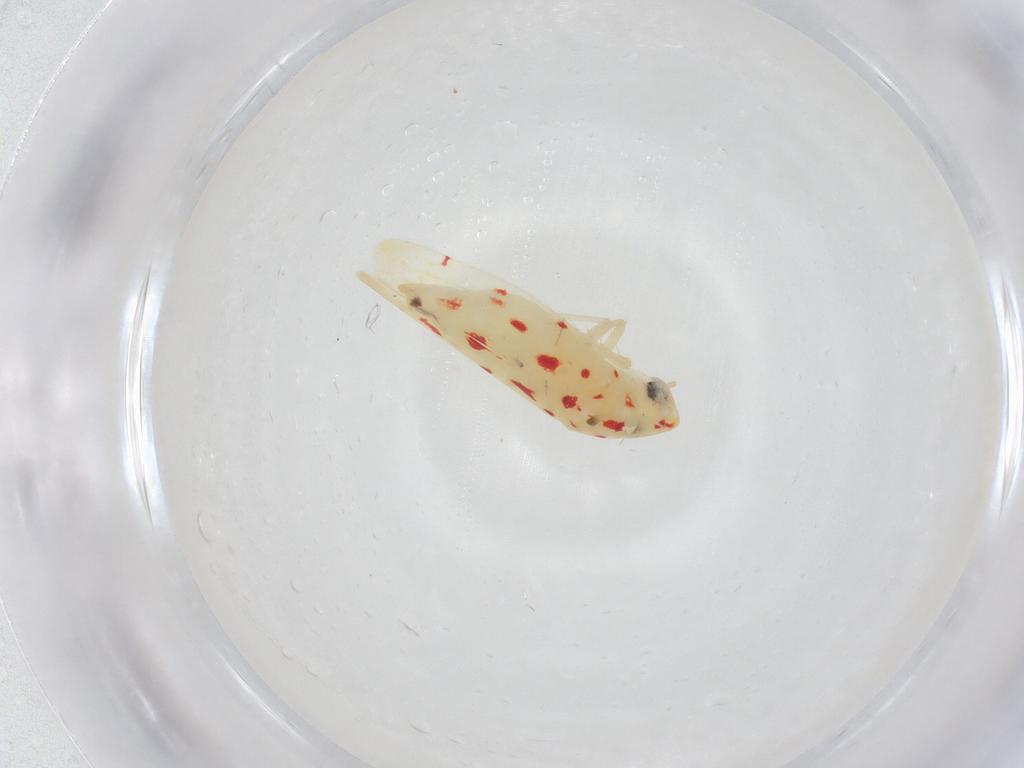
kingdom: Animalia
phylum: Arthropoda
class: Insecta
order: Hemiptera
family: Cicadellidae
